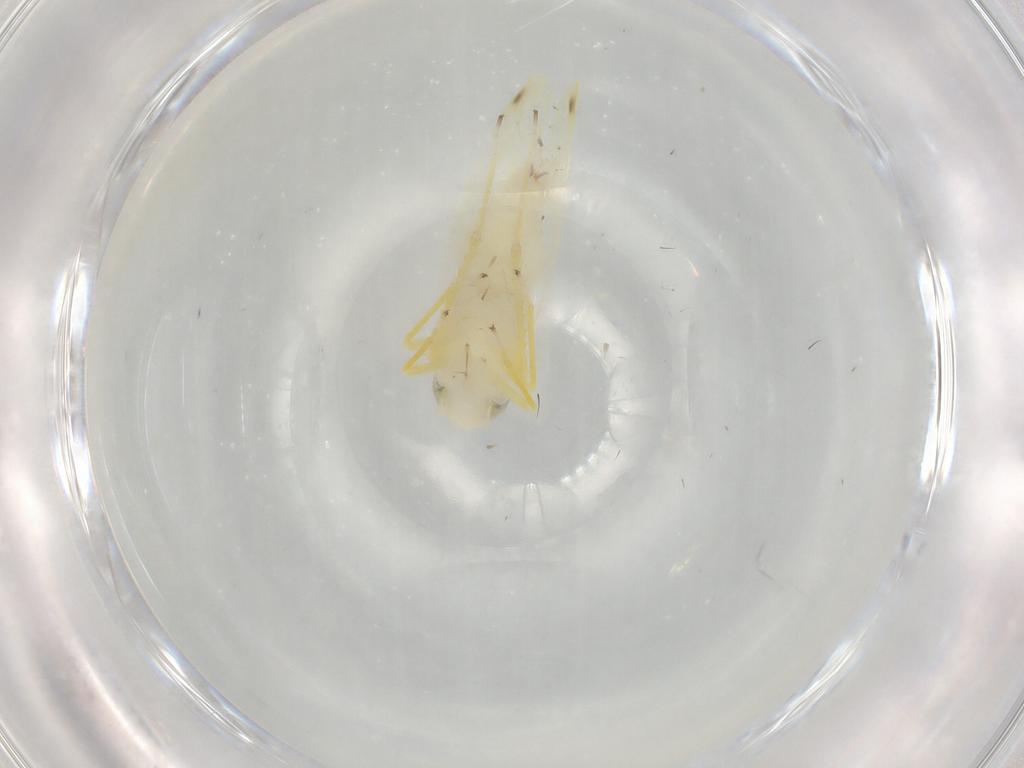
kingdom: Animalia
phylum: Arthropoda
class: Insecta
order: Hemiptera
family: Cicadellidae
